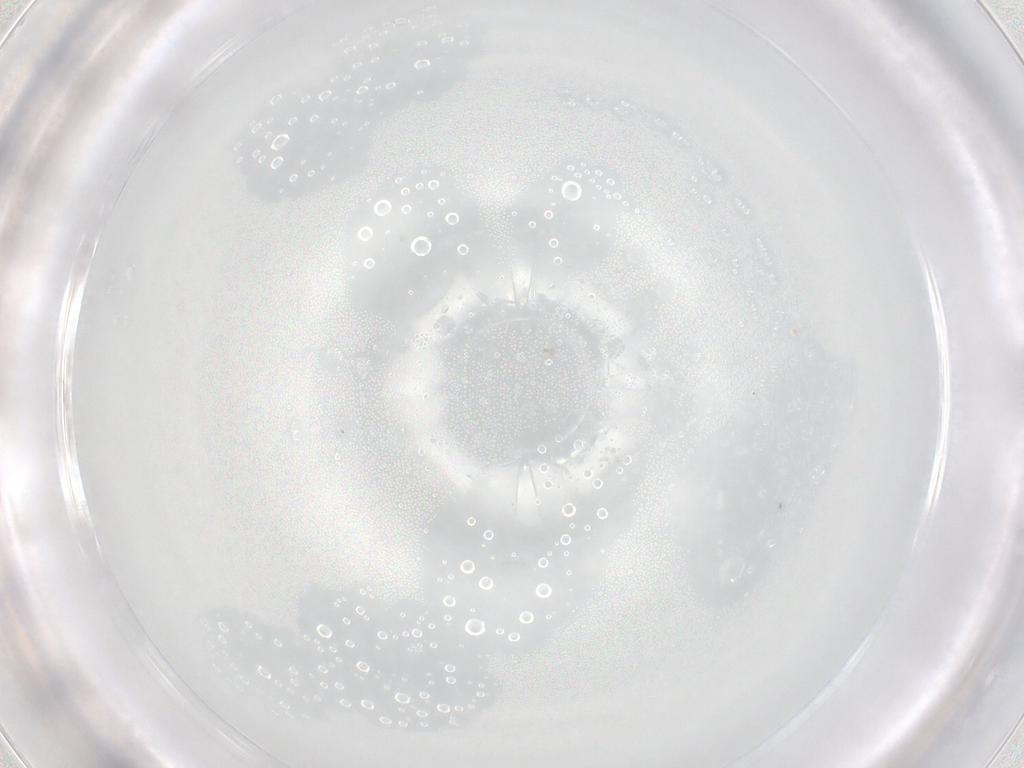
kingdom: Animalia
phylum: Arthropoda
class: Collembola
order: Entomobryomorpha
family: Entomobryidae
